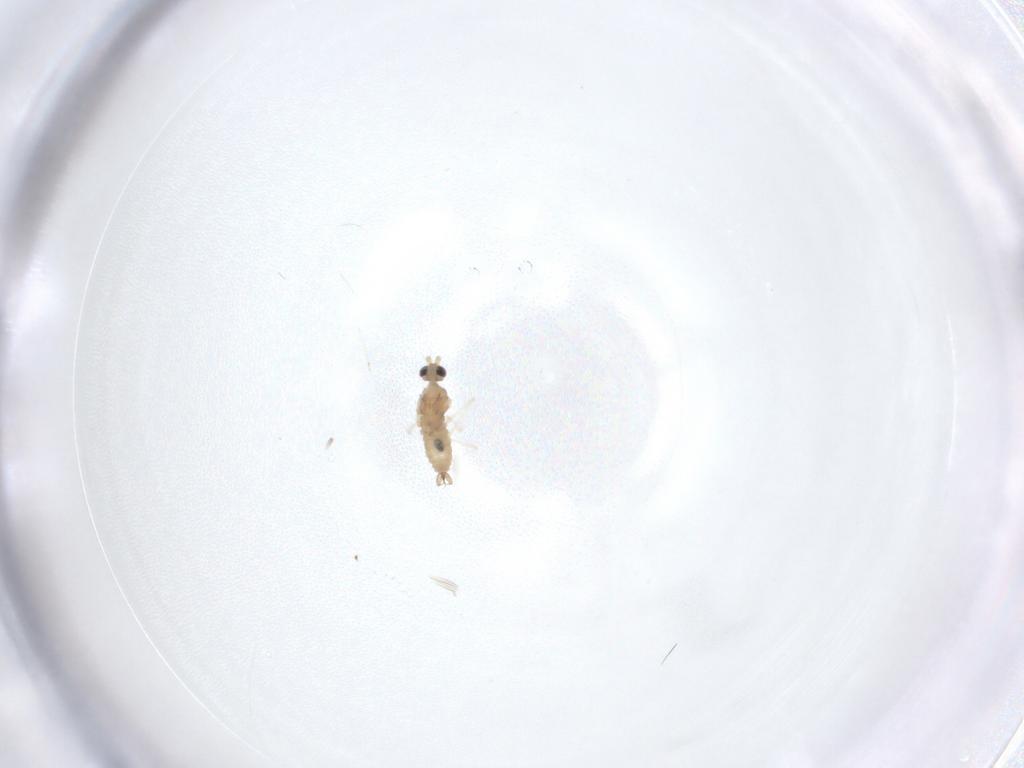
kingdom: Animalia
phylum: Arthropoda
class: Insecta
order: Diptera
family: Cecidomyiidae
